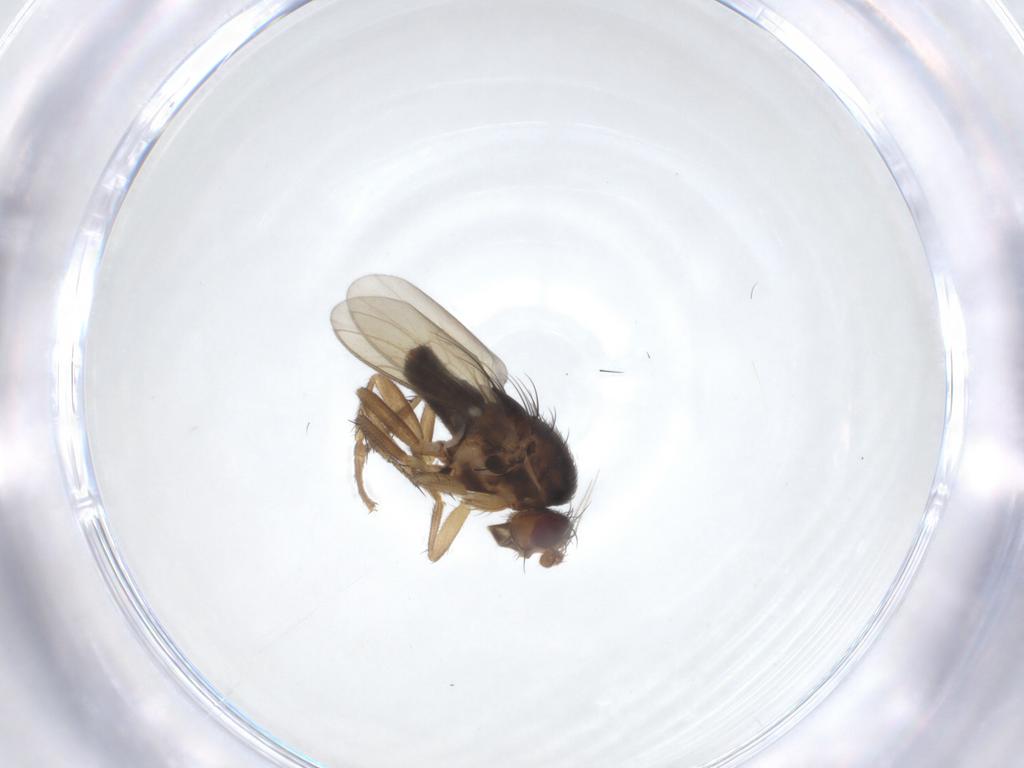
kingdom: Animalia
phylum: Arthropoda
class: Insecta
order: Diptera
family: Sphaeroceridae
